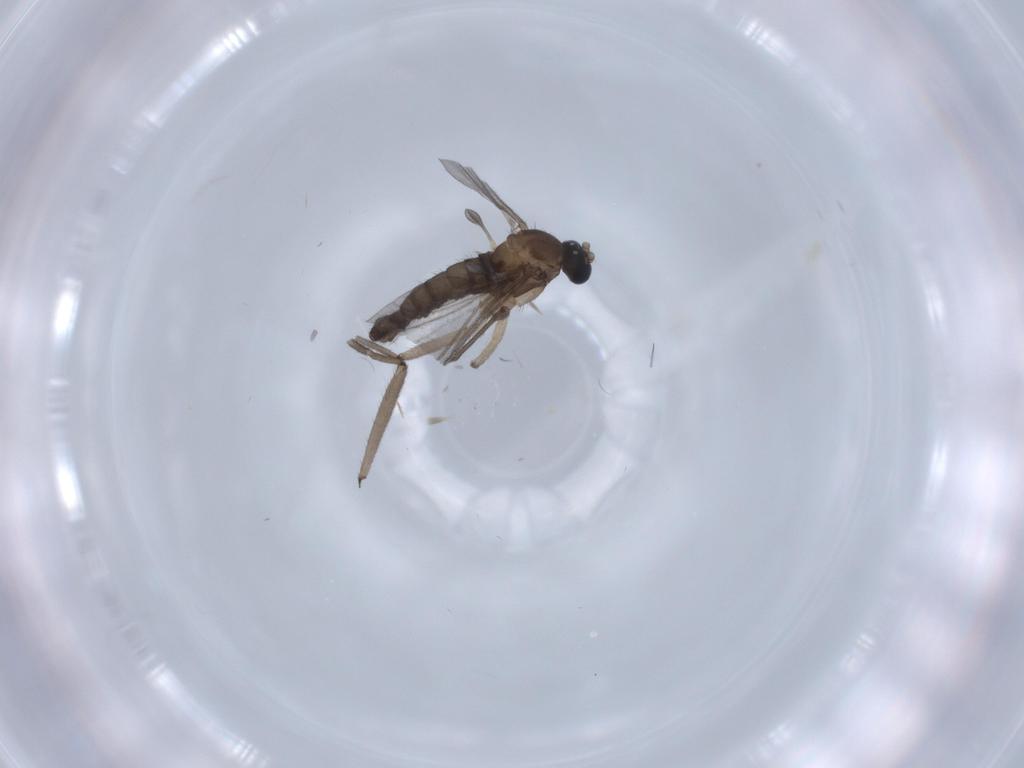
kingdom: Animalia
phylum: Arthropoda
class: Insecta
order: Diptera
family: Sciaridae
